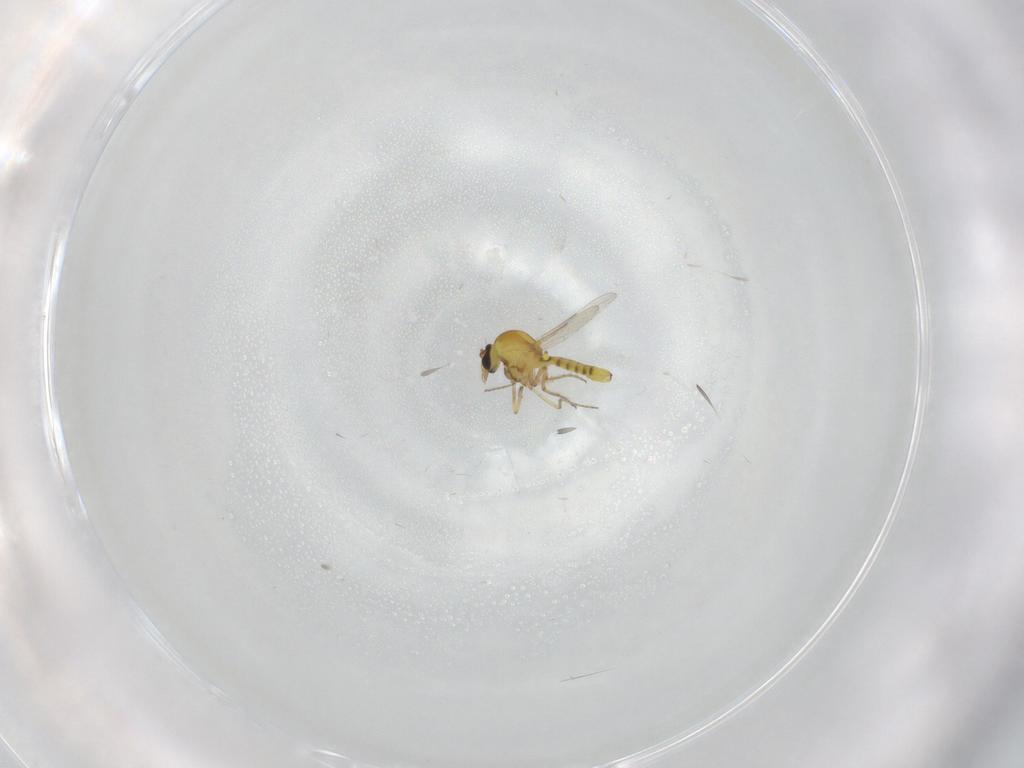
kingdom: Animalia
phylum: Arthropoda
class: Insecta
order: Diptera
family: Ceratopogonidae
